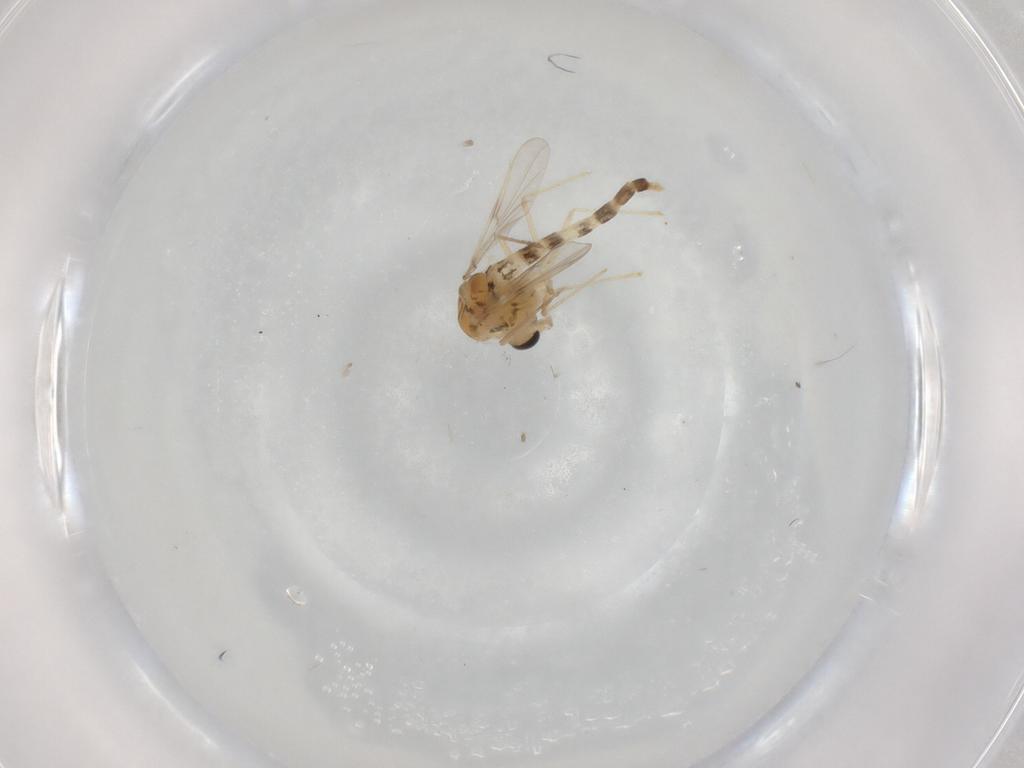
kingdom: Animalia
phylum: Arthropoda
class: Insecta
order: Diptera
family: Chironomidae
